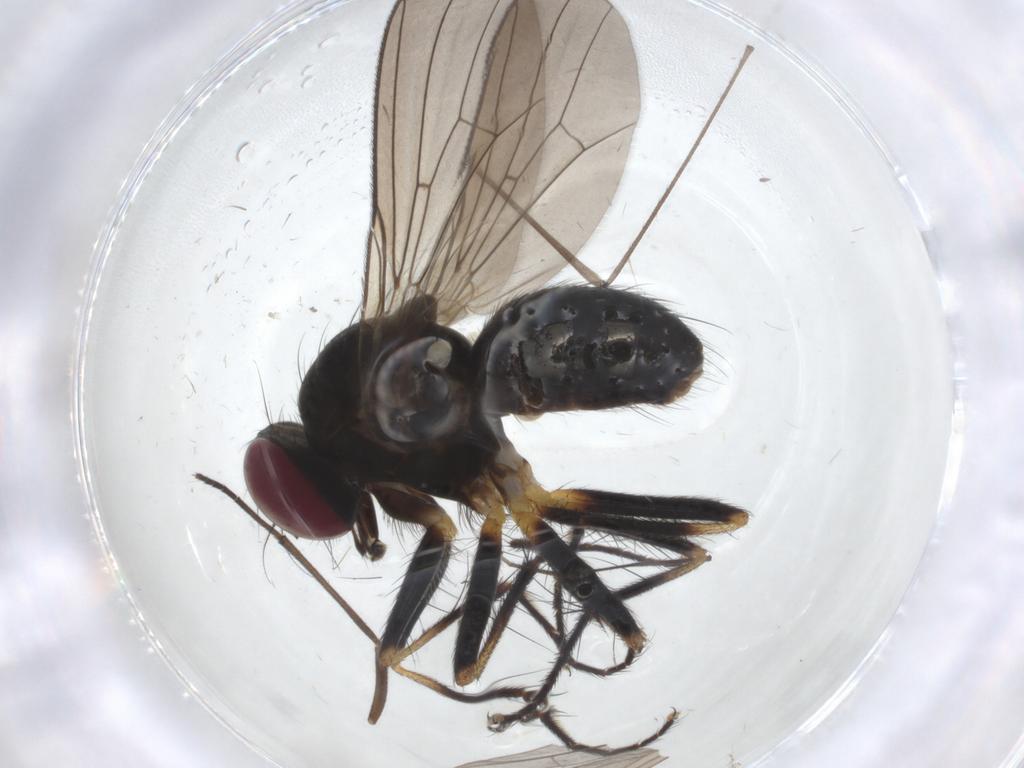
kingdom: Animalia
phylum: Arthropoda
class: Insecta
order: Diptera
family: Anthomyiidae
